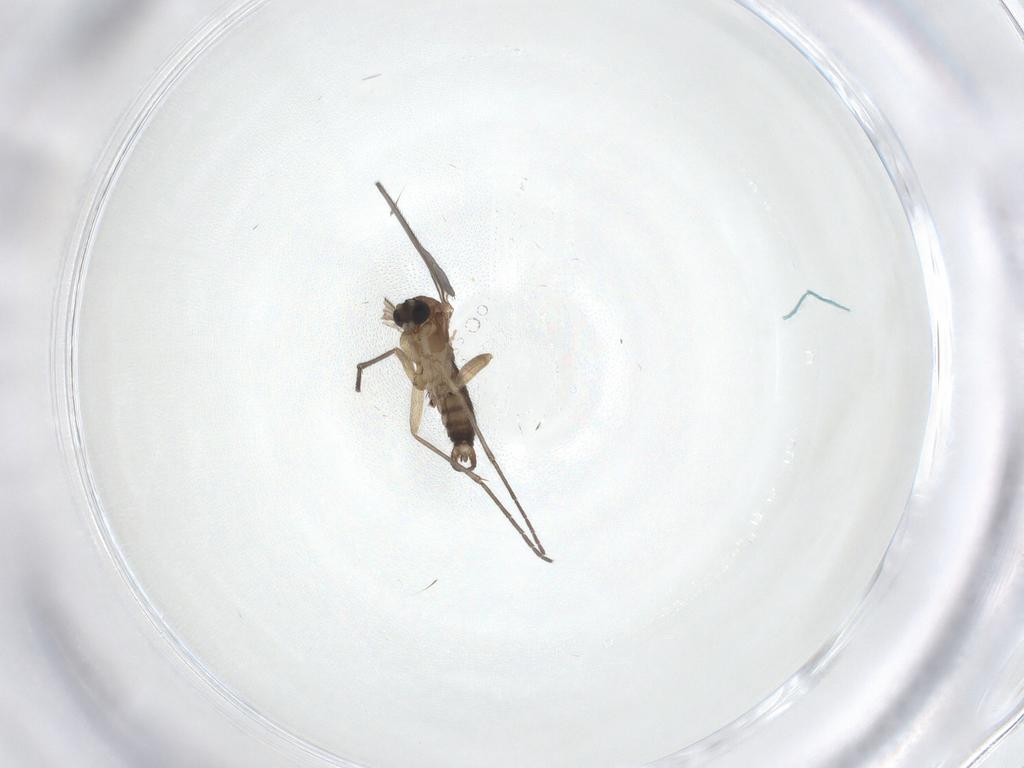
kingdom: Animalia
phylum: Arthropoda
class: Insecta
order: Diptera
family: Sciaridae
